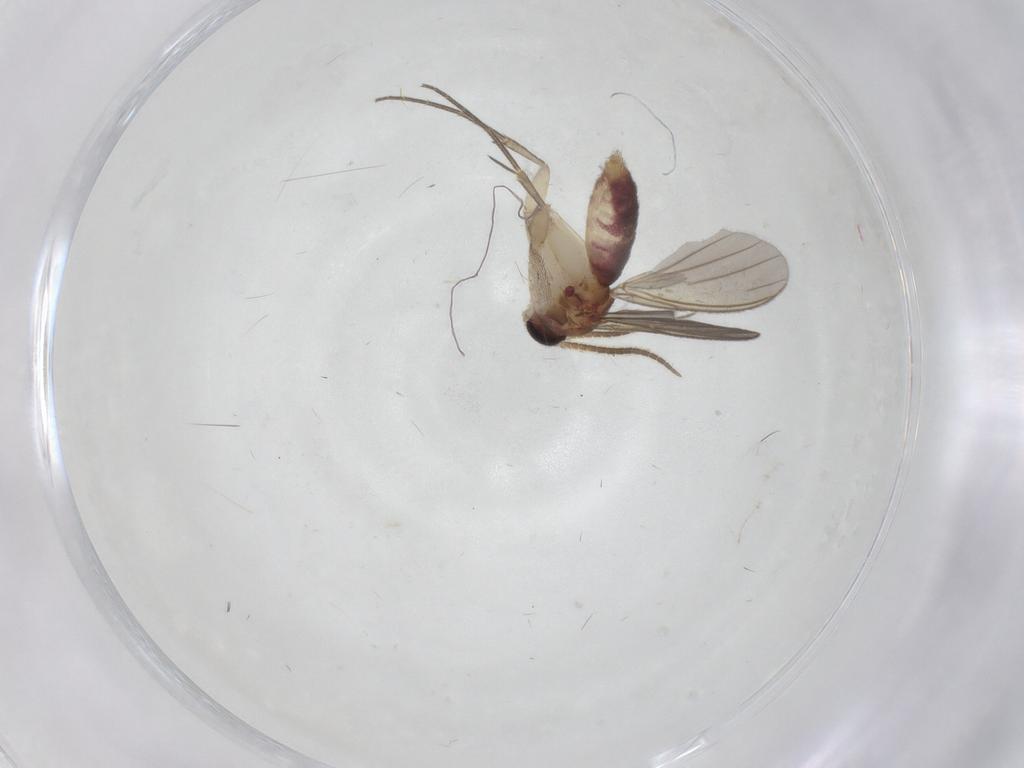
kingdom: Animalia
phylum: Arthropoda
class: Insecta
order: Diptera
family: Mycetophilidae
